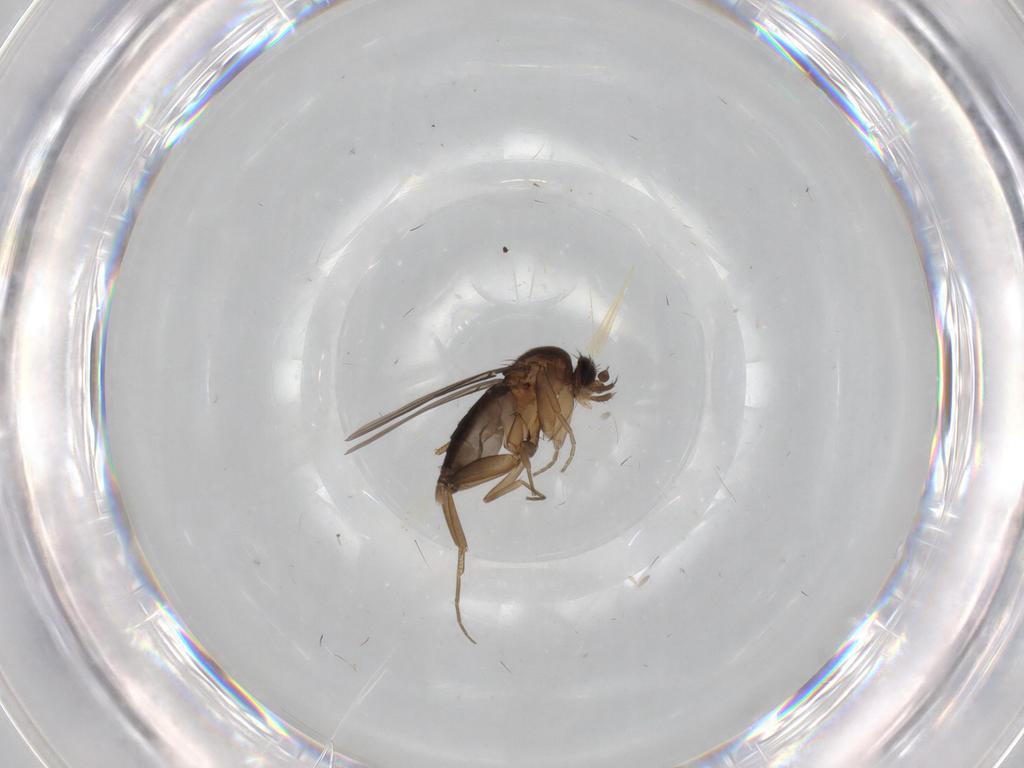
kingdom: Animalia
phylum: Arthropoda
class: Insecta
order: Diptera
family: Phoridae
